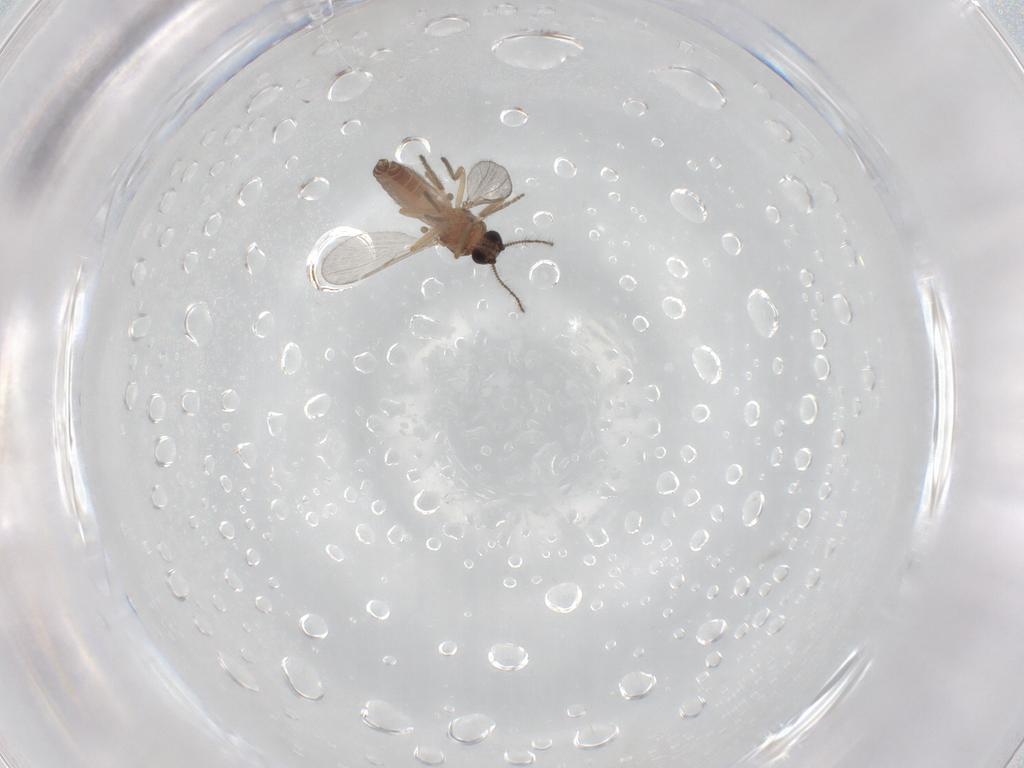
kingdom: Animalia
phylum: Arthropoda
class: Insecta
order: Diptera
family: Ceratopogonidae
